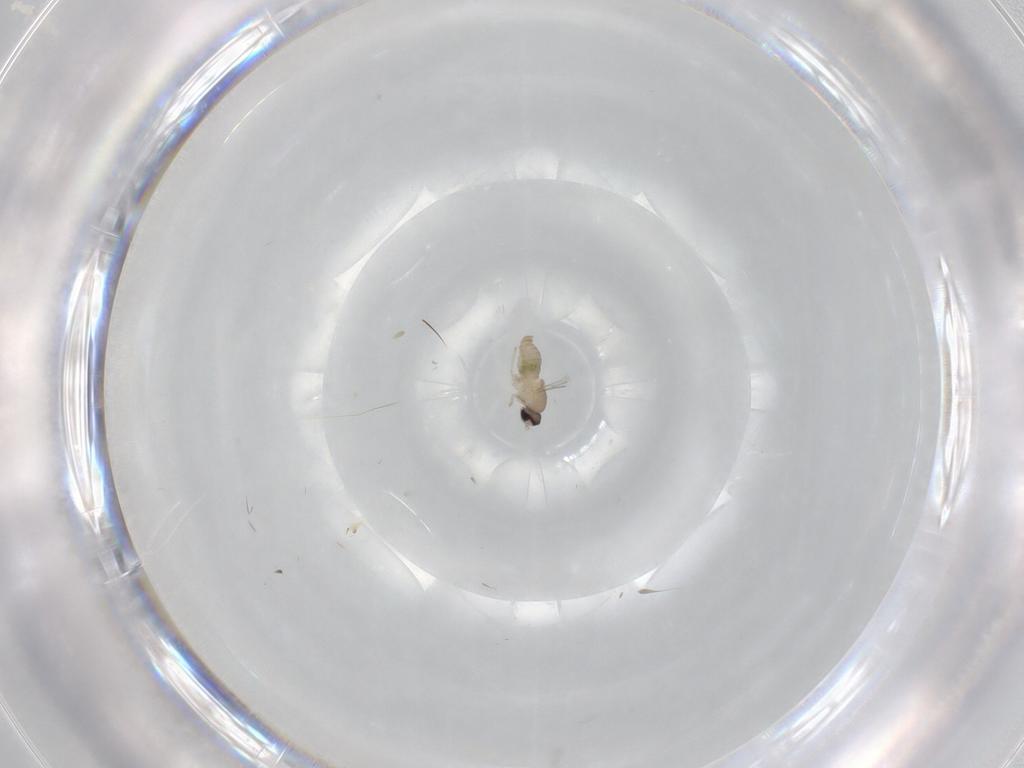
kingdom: Animalia
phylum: Arthropoda
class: Insecta
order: Diptera
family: Cecidomyiidae
